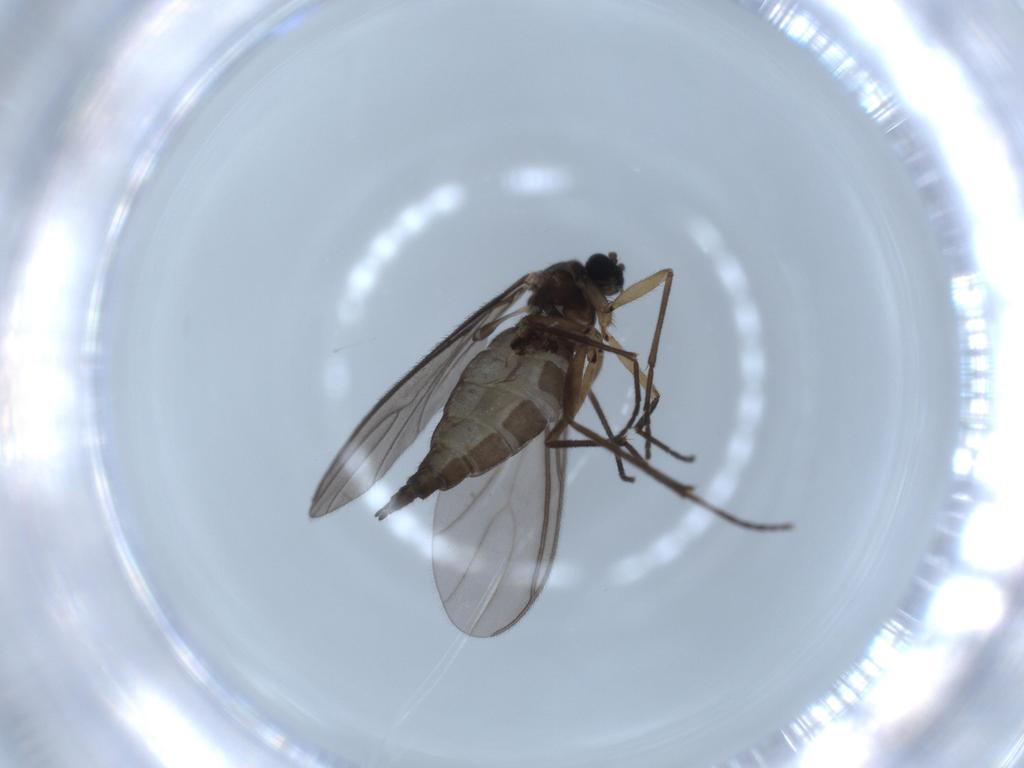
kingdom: Animalia
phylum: Arthropoda
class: Insecta
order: Diptera
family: Sciaridae
